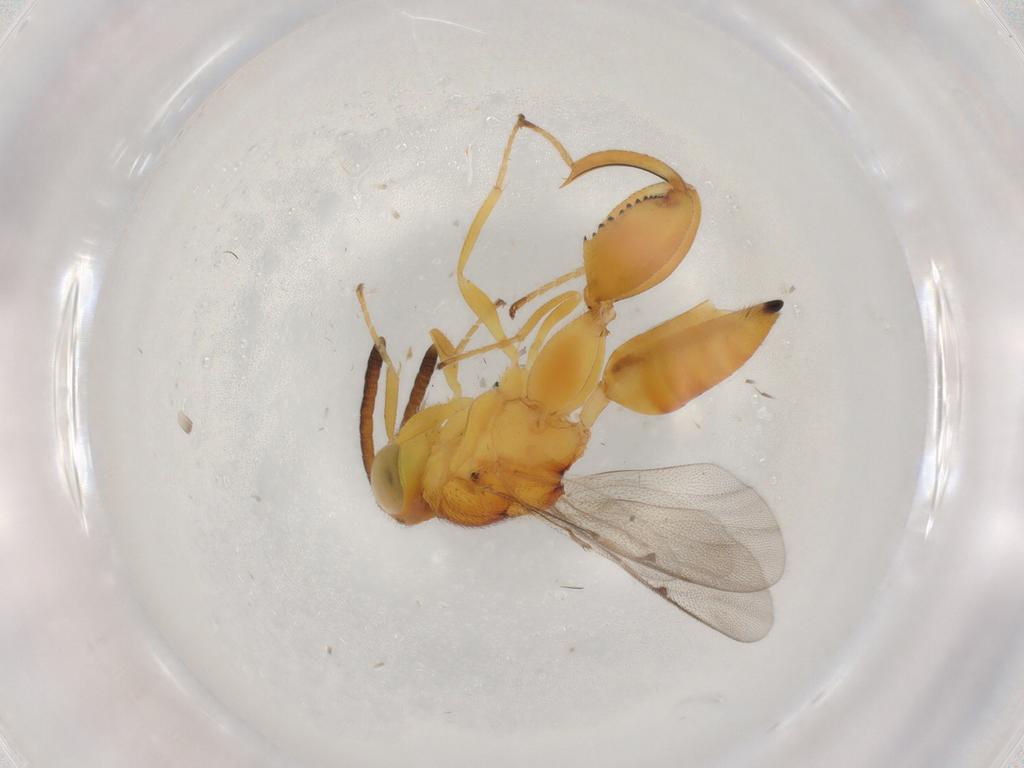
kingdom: Animalia
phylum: Arthropoda
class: Insecta
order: Hymenoptera
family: Chalcididae
